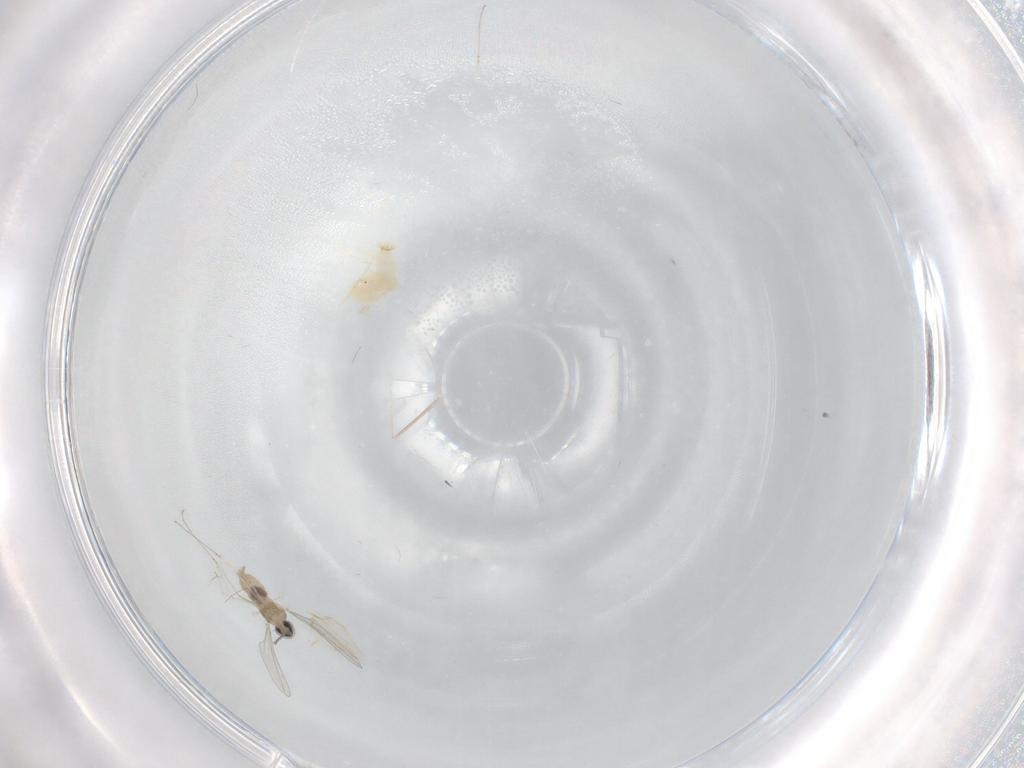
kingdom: Animalia
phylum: Arthropoda
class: Insecta
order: Diptera
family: Cecidomyiidae
